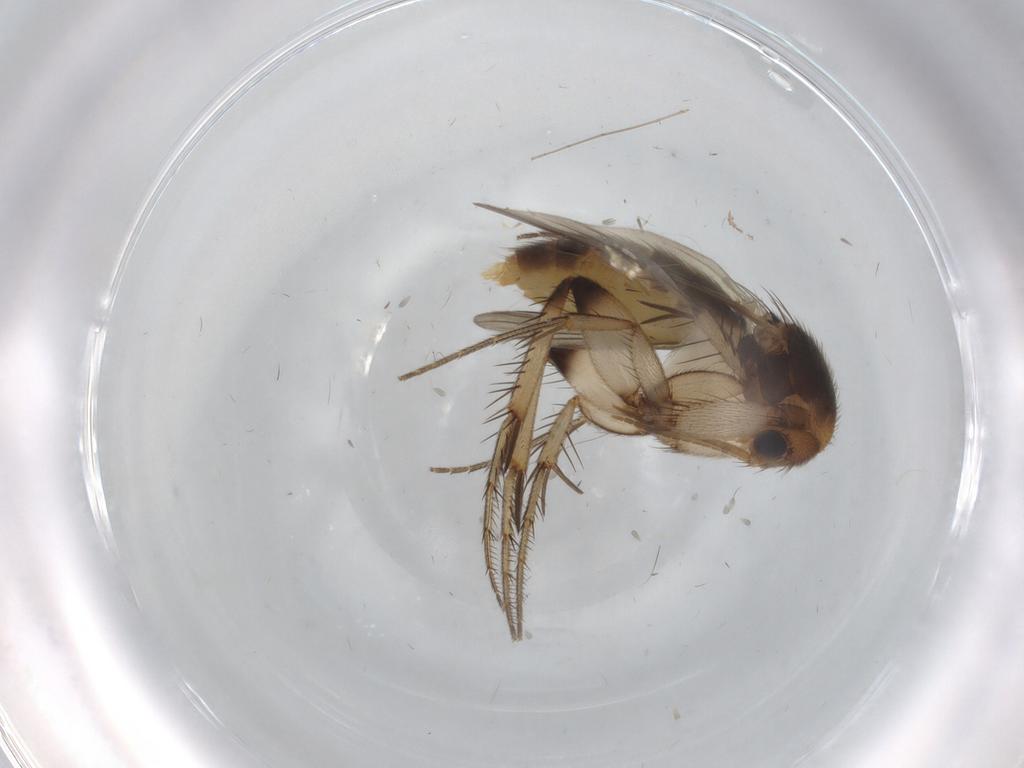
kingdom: Animalia
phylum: Arthropoda
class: Insecta
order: Diptera
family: Mycetophilidae
